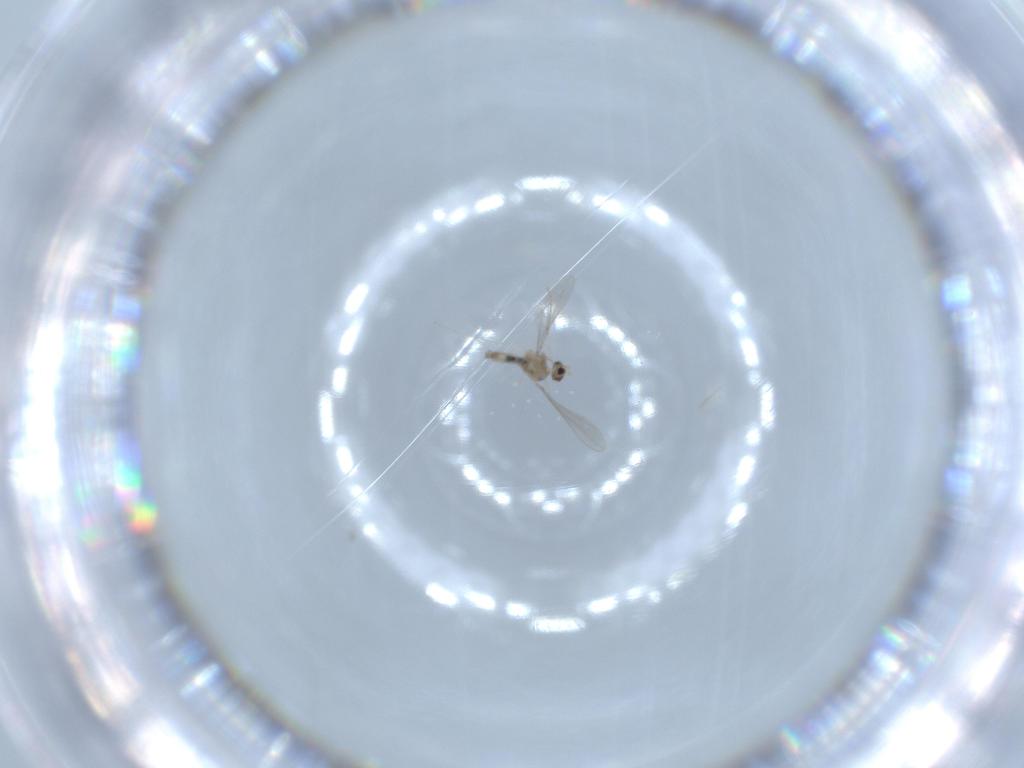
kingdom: Animalia
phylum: Arthropoda
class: Insecta
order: Diptera
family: Cecidomyiidae
